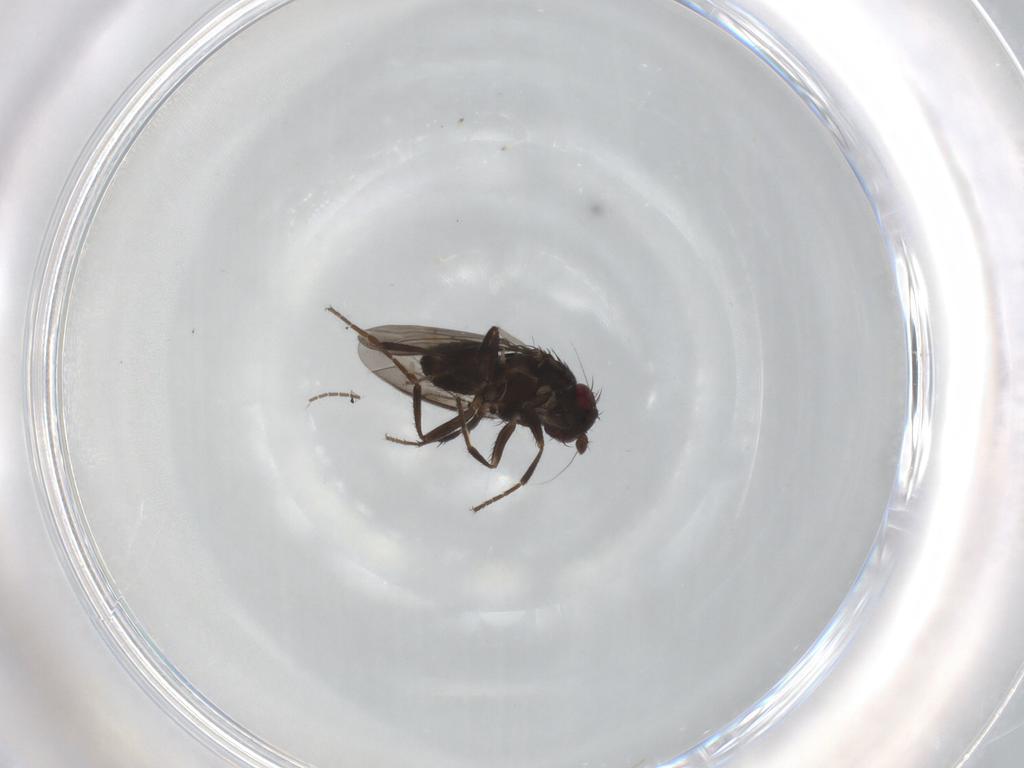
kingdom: Animalia
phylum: Arthropoda
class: Insecta
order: Diptera
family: Sphaeroceridae
